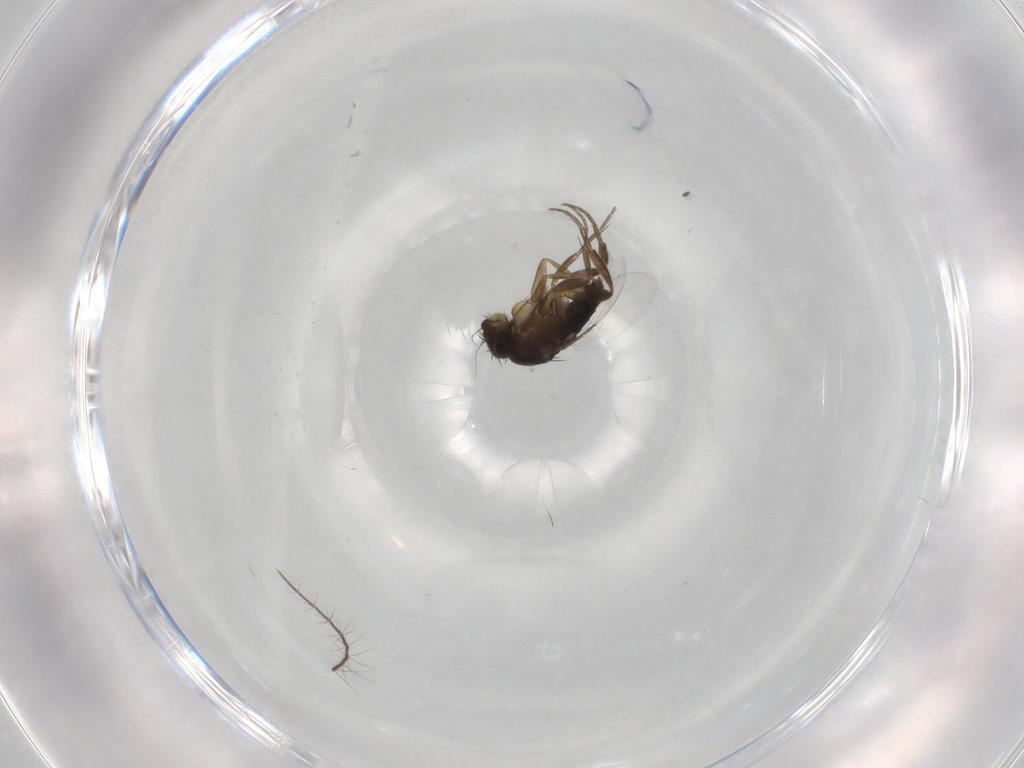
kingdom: Animalia
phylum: Arthropoda
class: Insecta
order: Diptera
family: Phoridae
